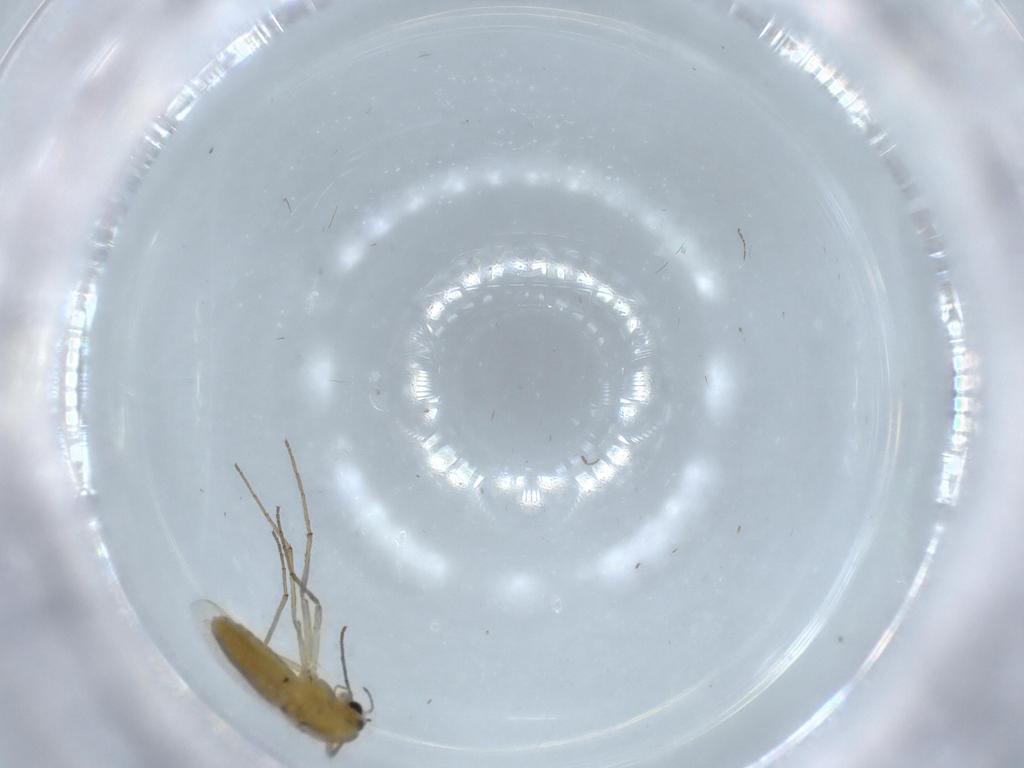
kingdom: Animalia
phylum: Arthropoda
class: Insecta
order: Diptera
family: Chironomidae
